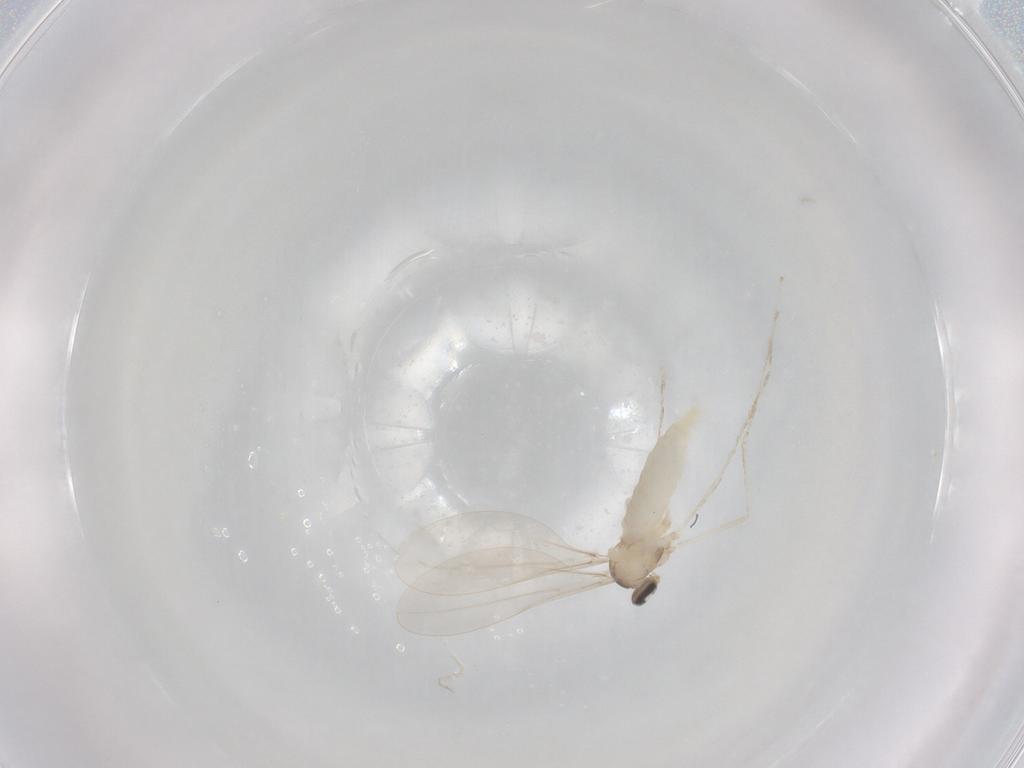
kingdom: Animalia
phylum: Arthropoda
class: Insecta
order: Diptera
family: Cecidomyiidae
